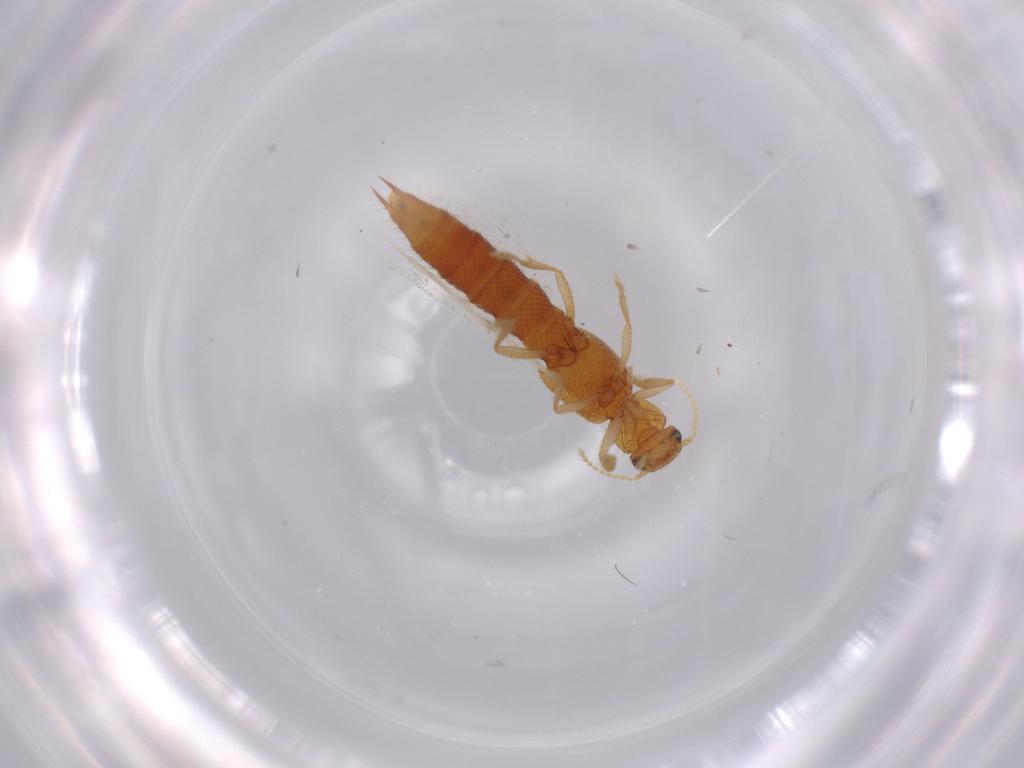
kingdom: Animalia
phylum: Arthropoda
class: Insecta
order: Coleoptera
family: Staphylinidae
